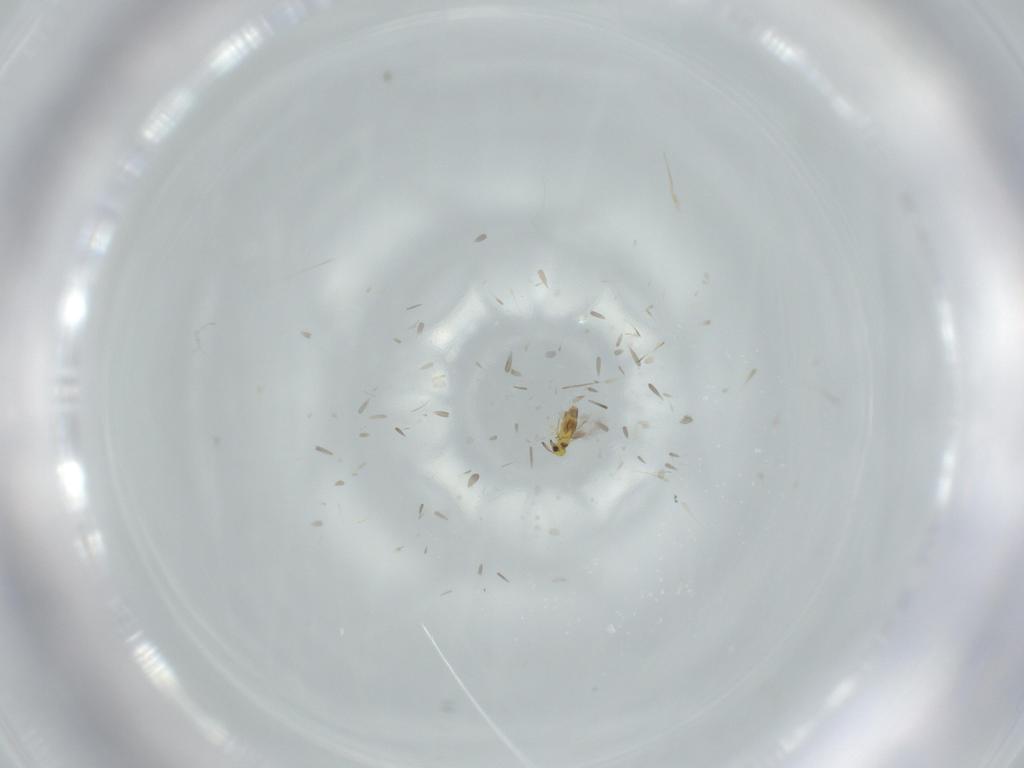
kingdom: Animalia
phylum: Arthropoda
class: Insecta
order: Hymenoptera
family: Signiphoridae
